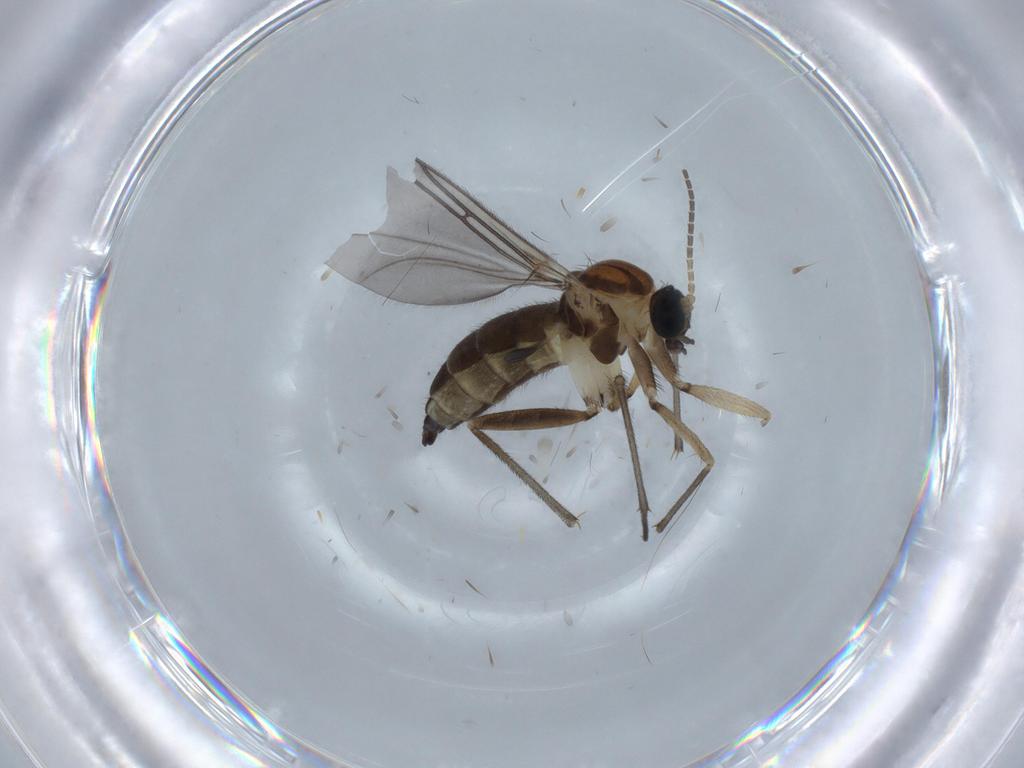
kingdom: Animalia
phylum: Arthropoda
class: Insecta
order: Diptera
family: Sciaridae
